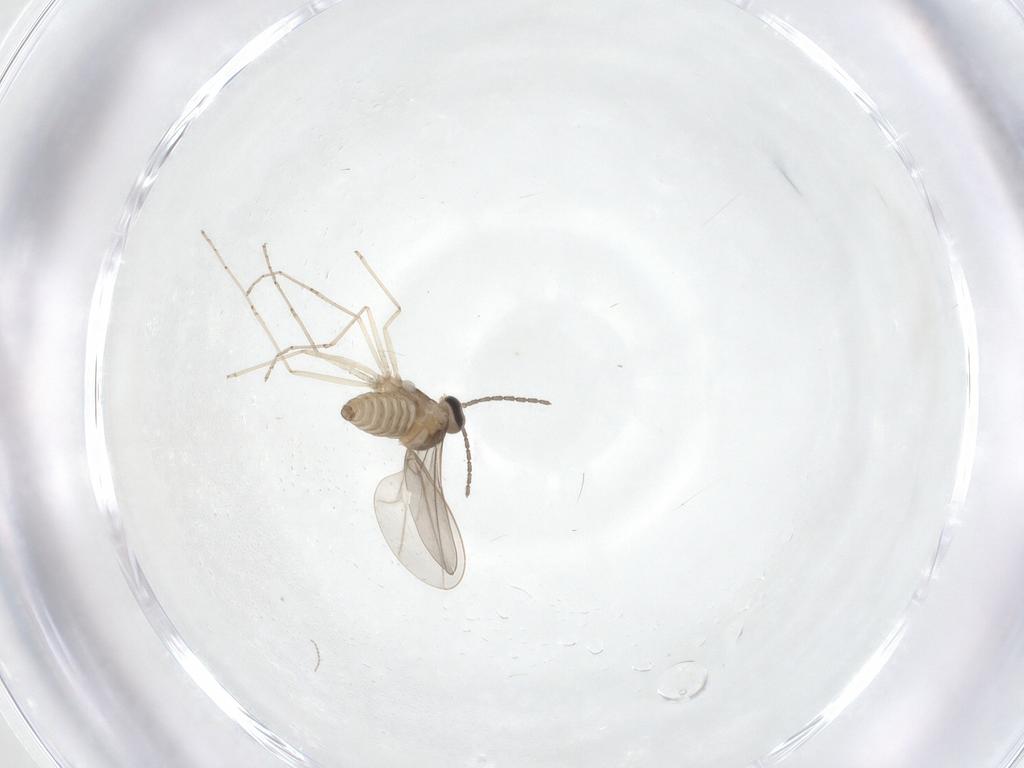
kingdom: Animalia
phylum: Arthropoda
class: Insecta
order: Diptera
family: Cecidomyiidae
